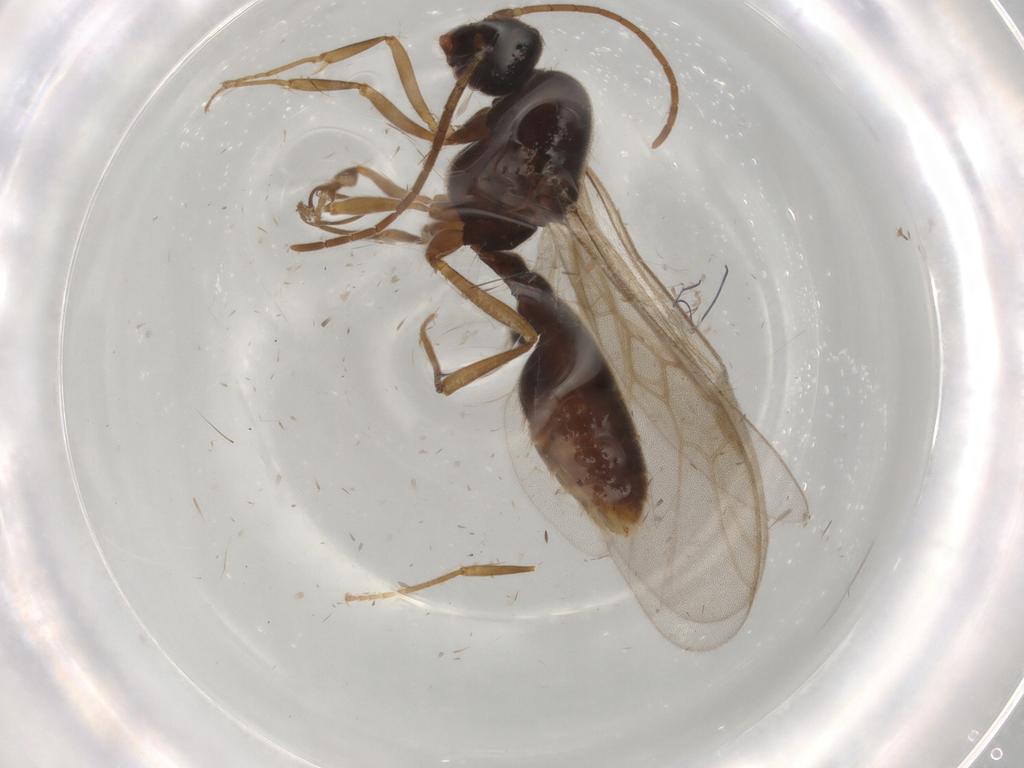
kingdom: Animalia
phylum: Arthropoda
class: Insecta
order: Hymenoptera
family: Formicidae
